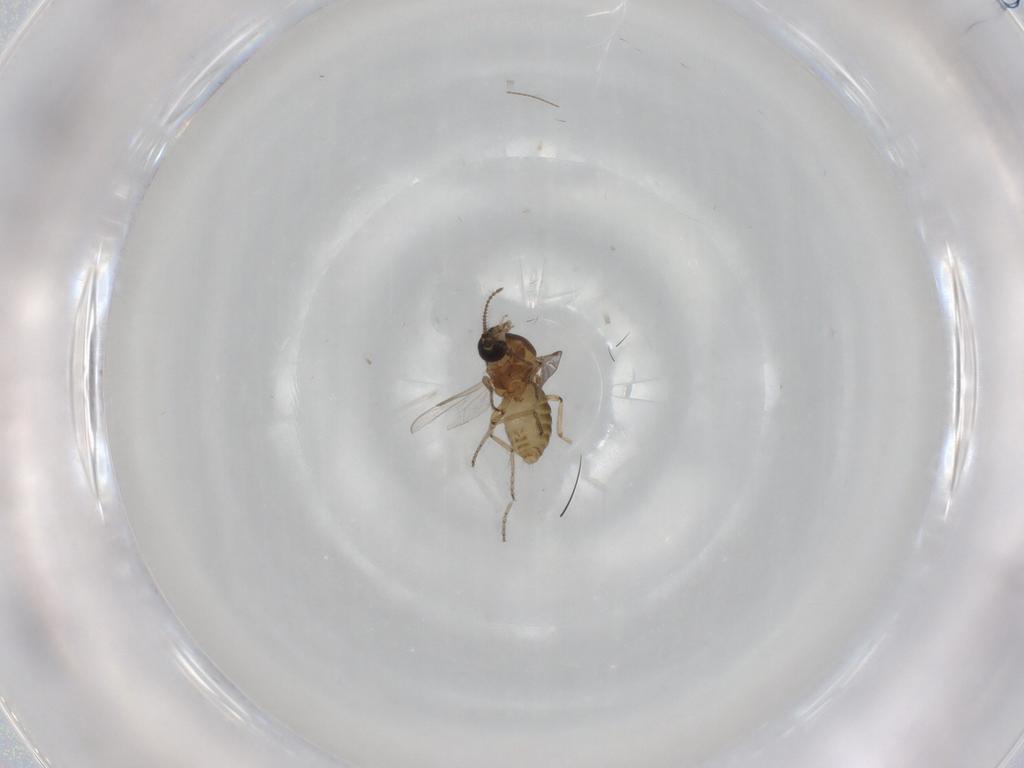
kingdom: Animalia
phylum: Arthropoda
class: Insecta
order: Diptera
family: Ceratopogonidae
